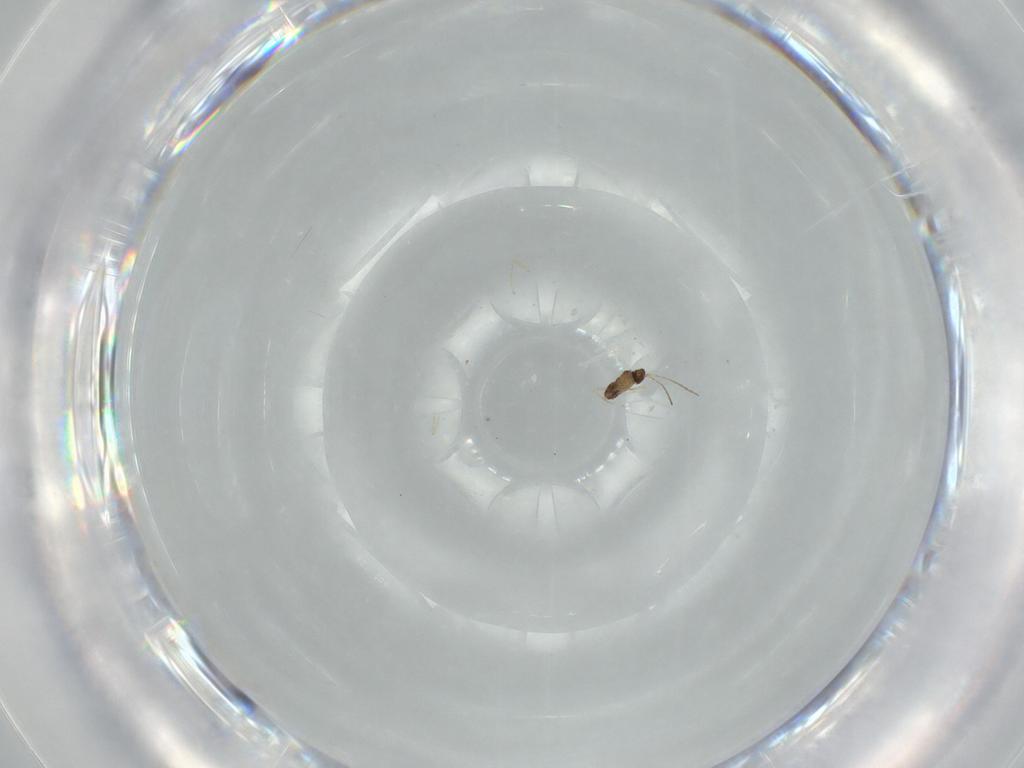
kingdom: Animalia
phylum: Arthropoda
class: Insecta
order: Hymenoptera
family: Ichneumonidae
